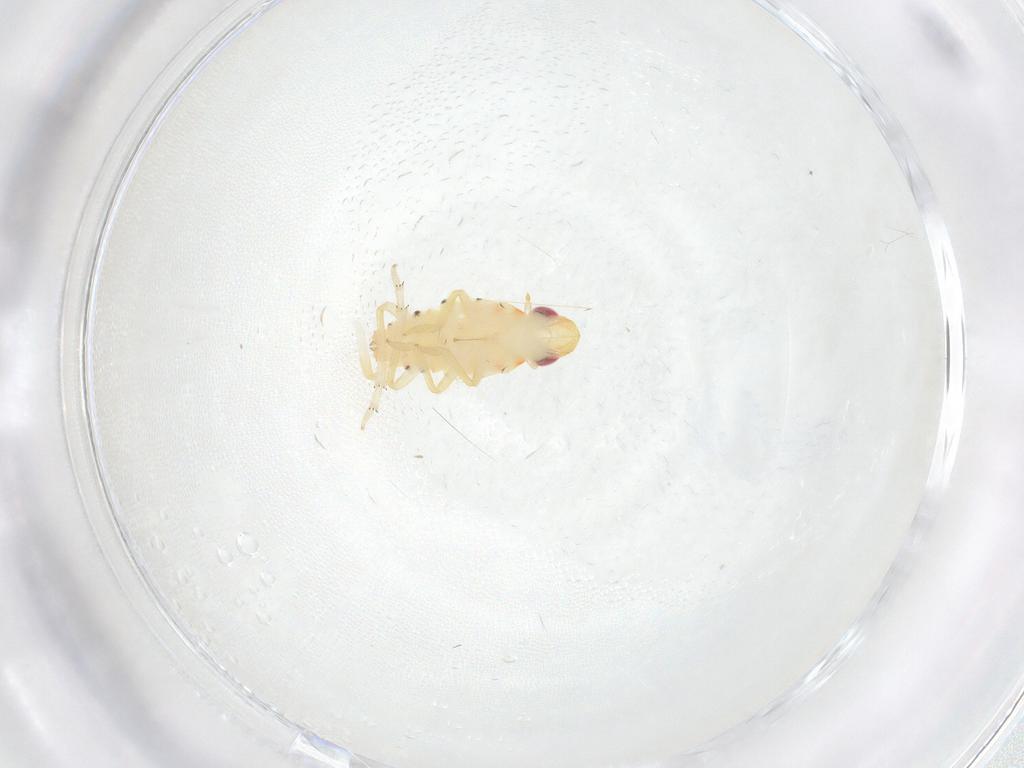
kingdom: Animalia
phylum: Arthropoda
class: Insecta
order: Hemiptera
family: Tropiduchidae
